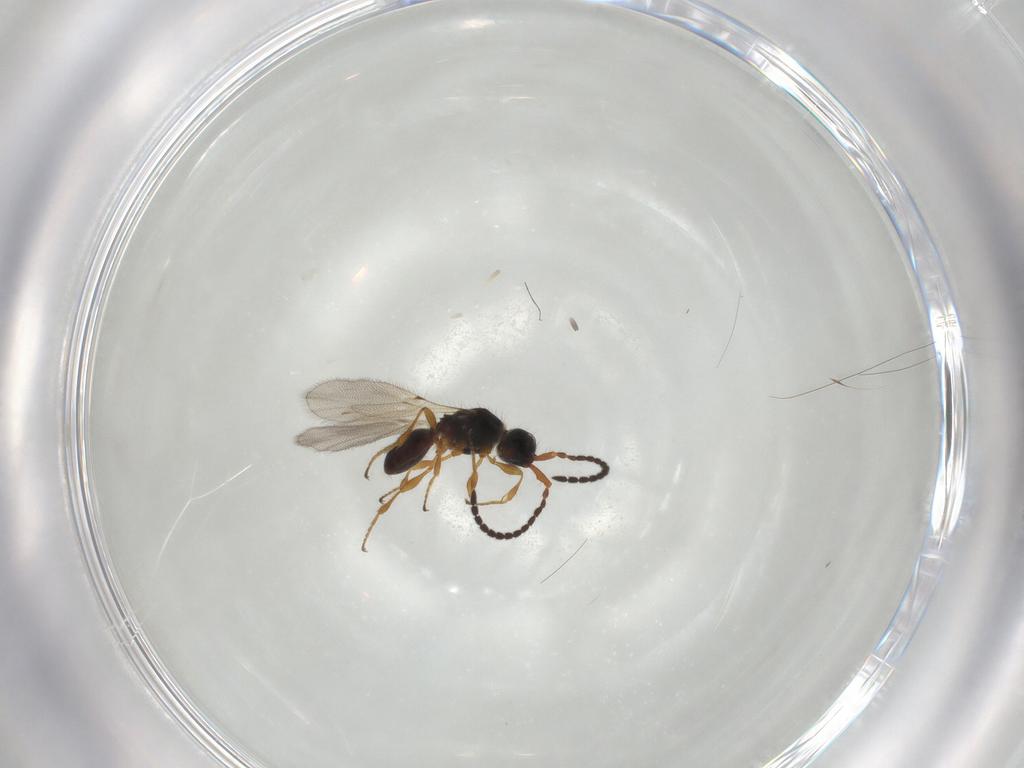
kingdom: Animalia
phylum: Arthropoda
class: Insecta
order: Hymenoptera
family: Diapriidae
